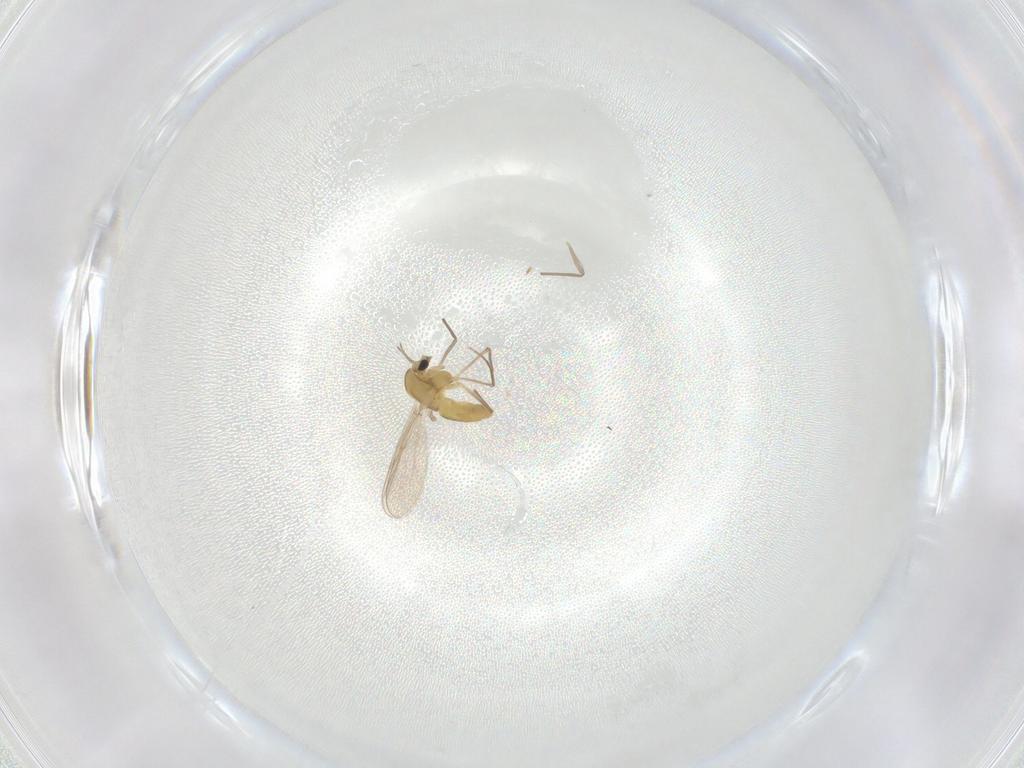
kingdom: Animalia
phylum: Arthropoda
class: Insecta
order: Diptera
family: Chironomidae
